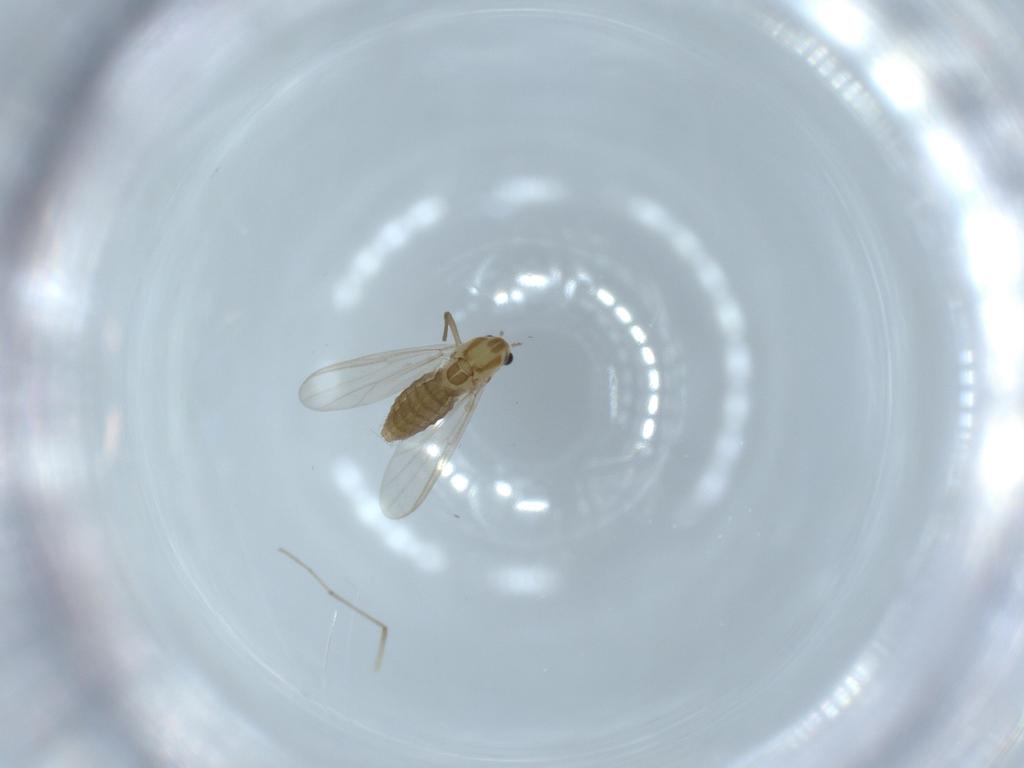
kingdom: Animalia
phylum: Arthropoda
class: Insecta
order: Diptera
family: Chironomidae
